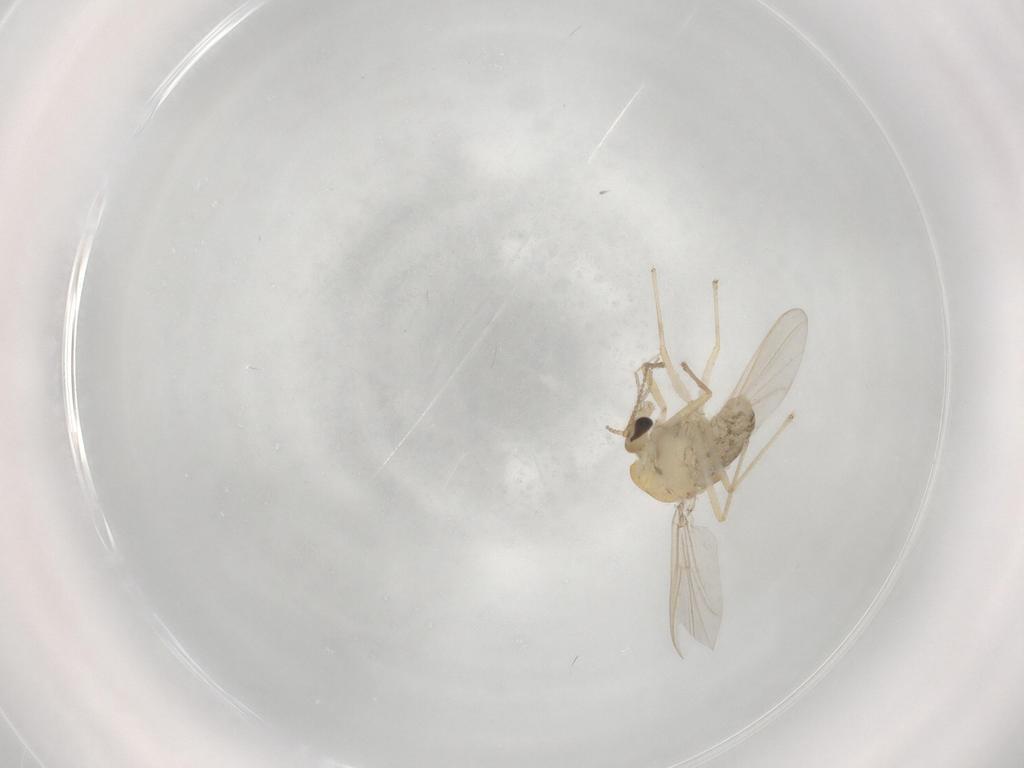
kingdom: Animalia
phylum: Arthropoda
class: Insecta
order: Diptera
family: Chironomidae
